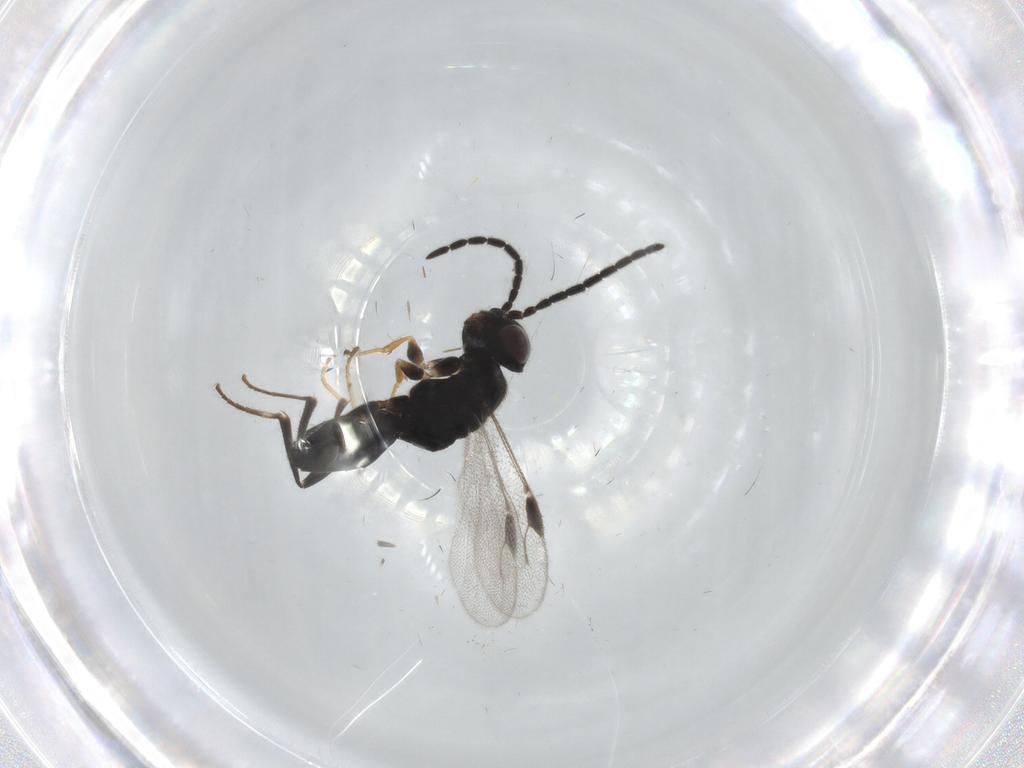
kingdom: Animalia
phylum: Arthropoda
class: Insecta
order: Hymenoptera
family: Dryinidae
